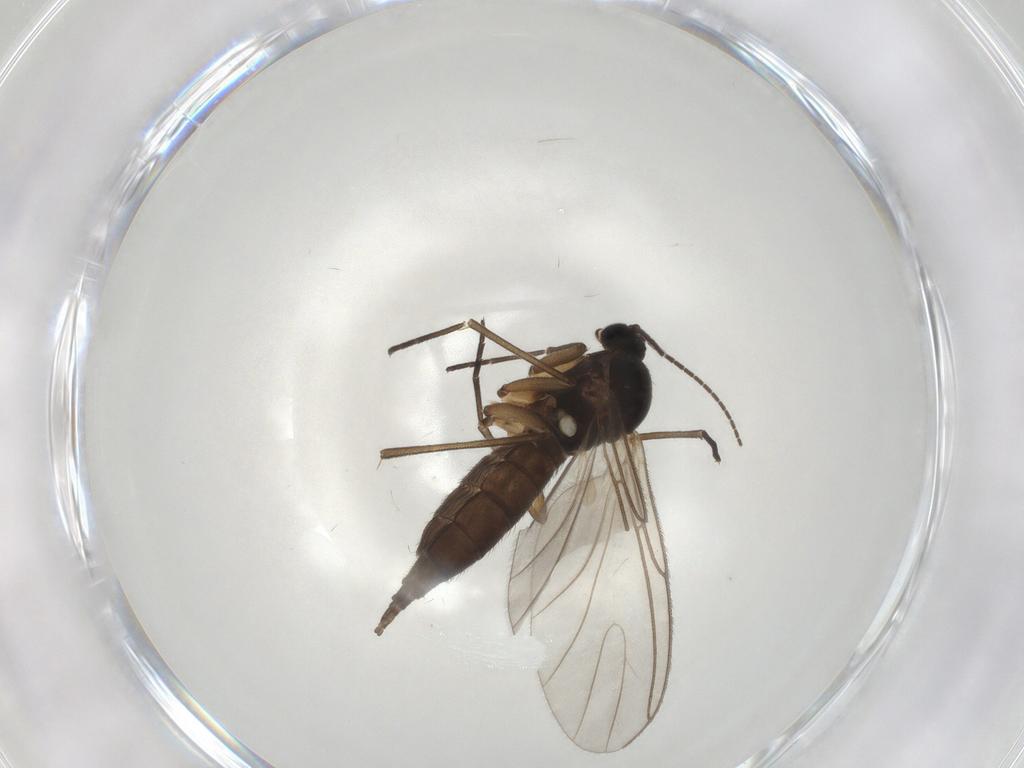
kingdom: Animalia
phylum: Arthropoda
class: Insecta
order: Diptera
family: Sciaridae
